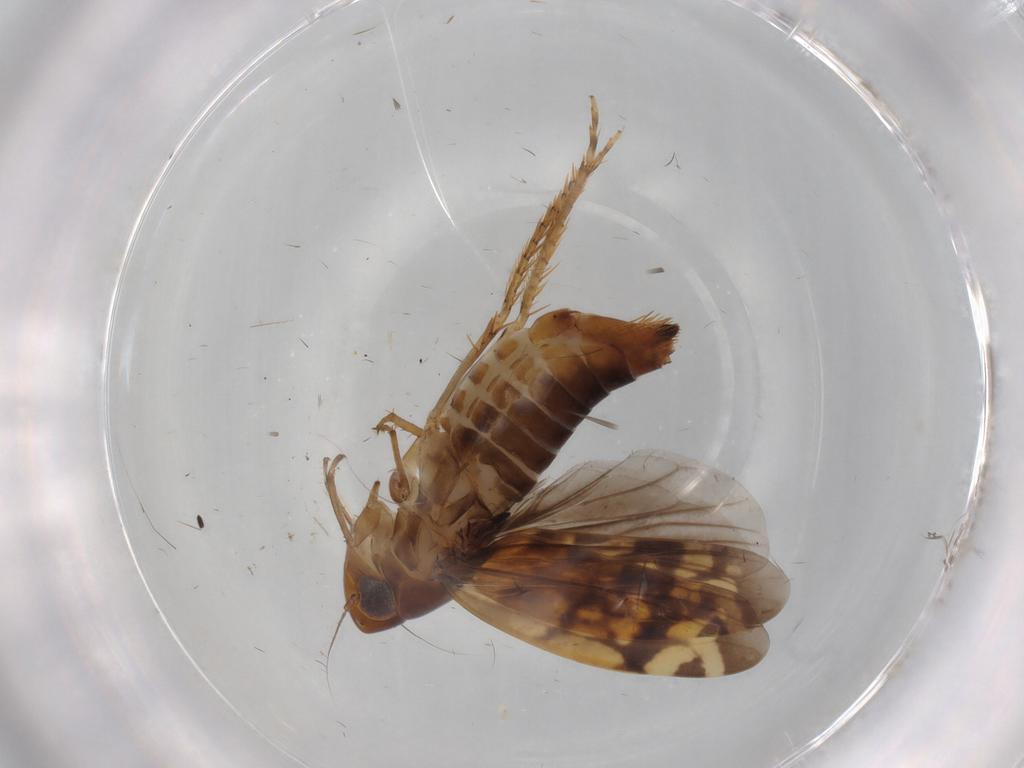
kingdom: Animalia
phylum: Arthropoda
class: Insecta
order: Hemiptera
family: Cicadellidae
